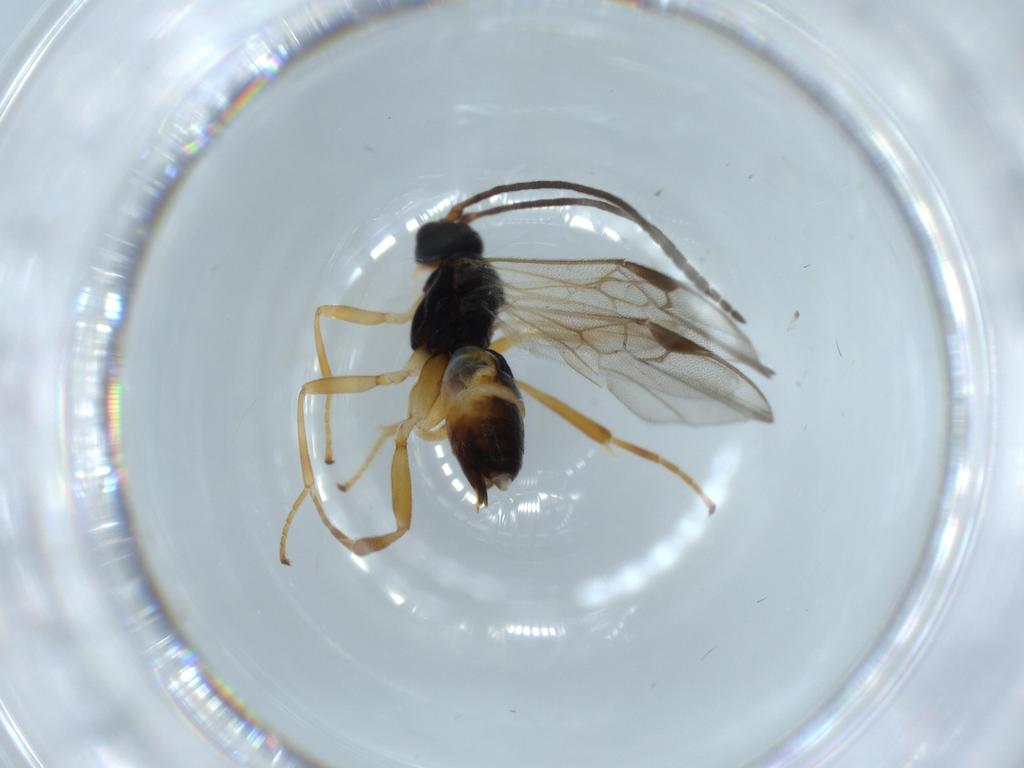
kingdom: Animalia
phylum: Arthropoda
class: Insecta
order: Hymenoptera
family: Braconidae
